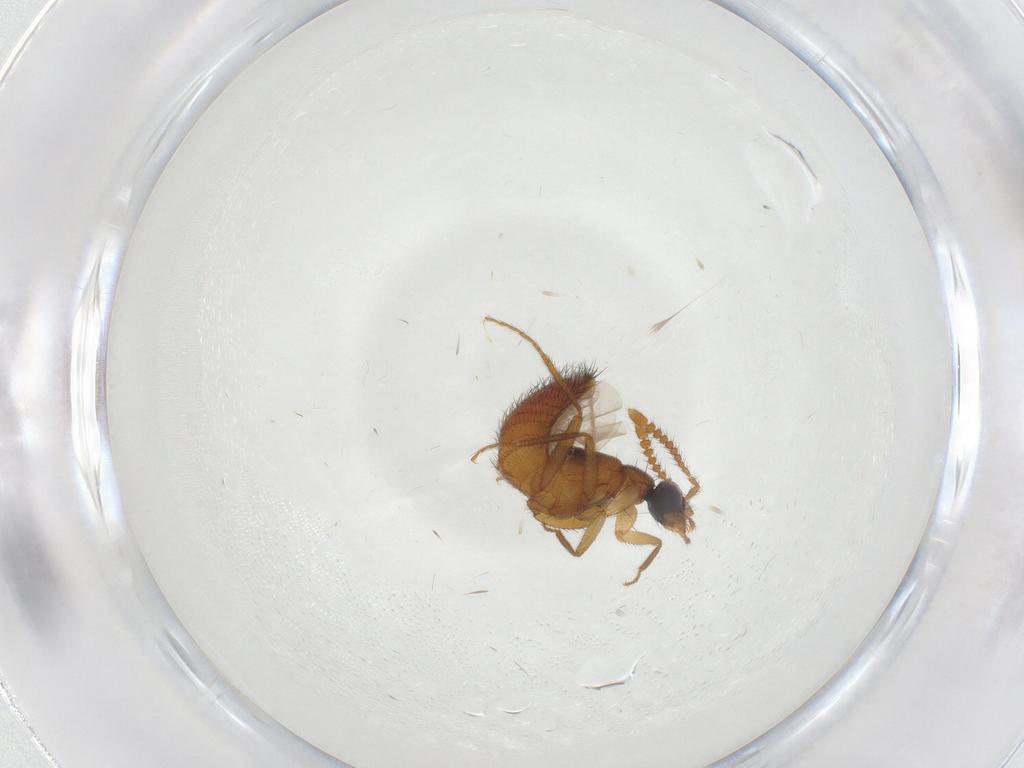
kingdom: Animalia
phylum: Arthropoda
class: Insecta
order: Coleoptera
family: Staphylinidae
